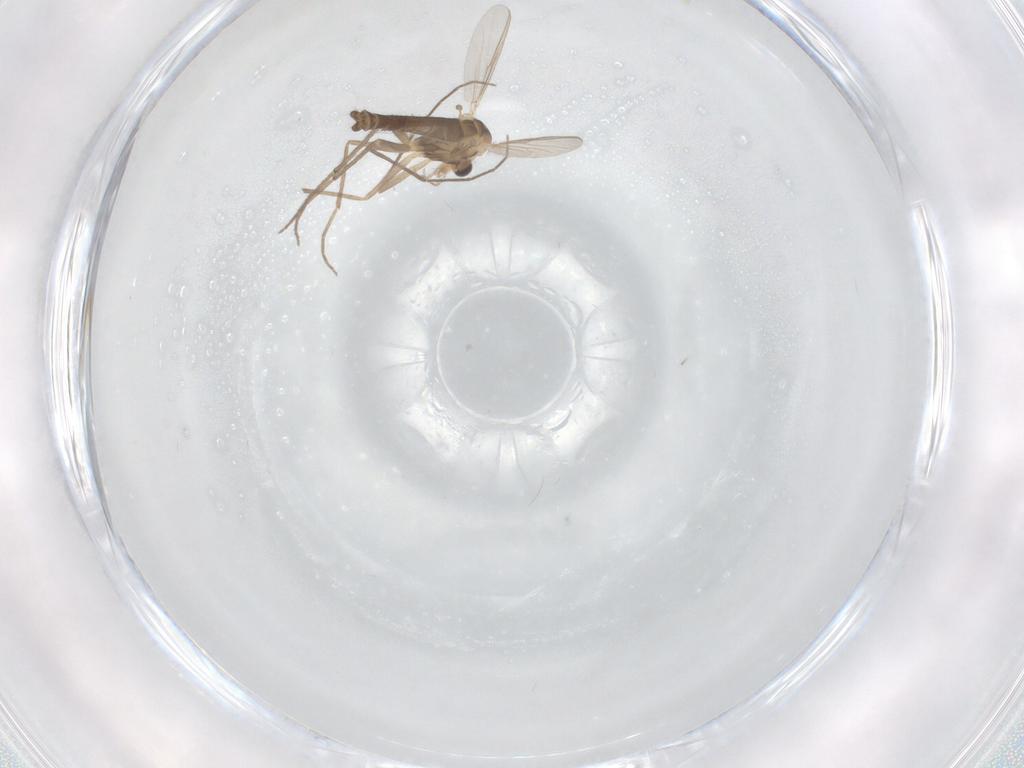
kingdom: Animalia
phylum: Arthropoda
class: Insecta
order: Diptera
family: Chironomidae
